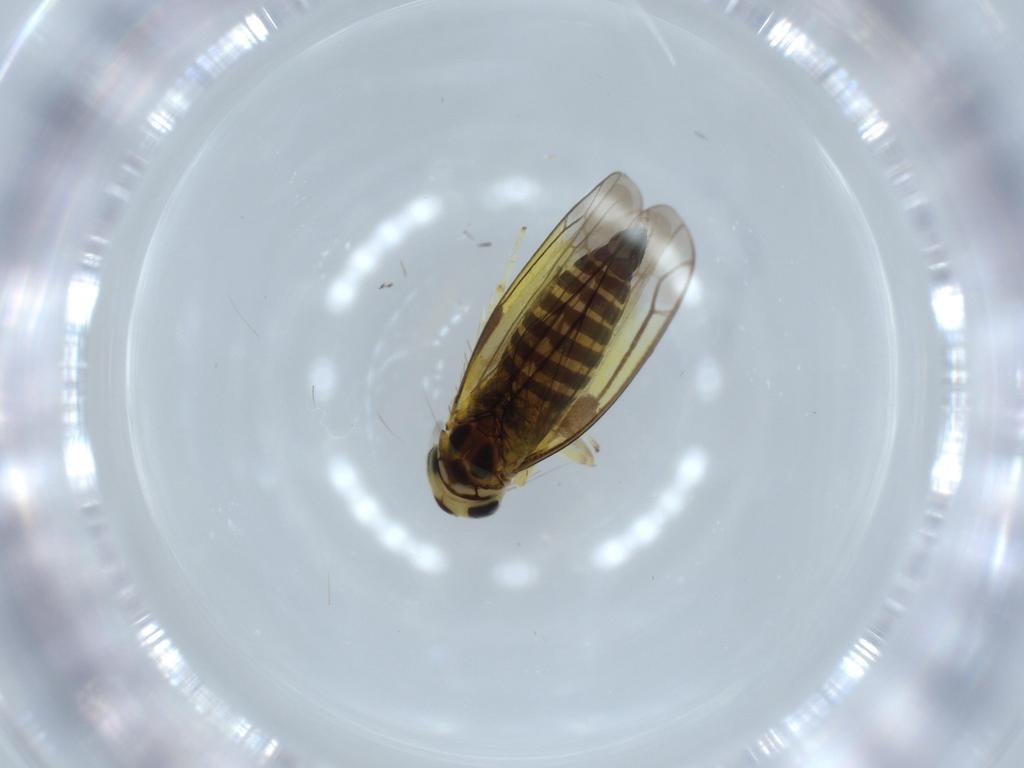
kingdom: Animalia
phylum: Arthropoda
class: Insecta
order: Hemiptera
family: Cicadellidae
